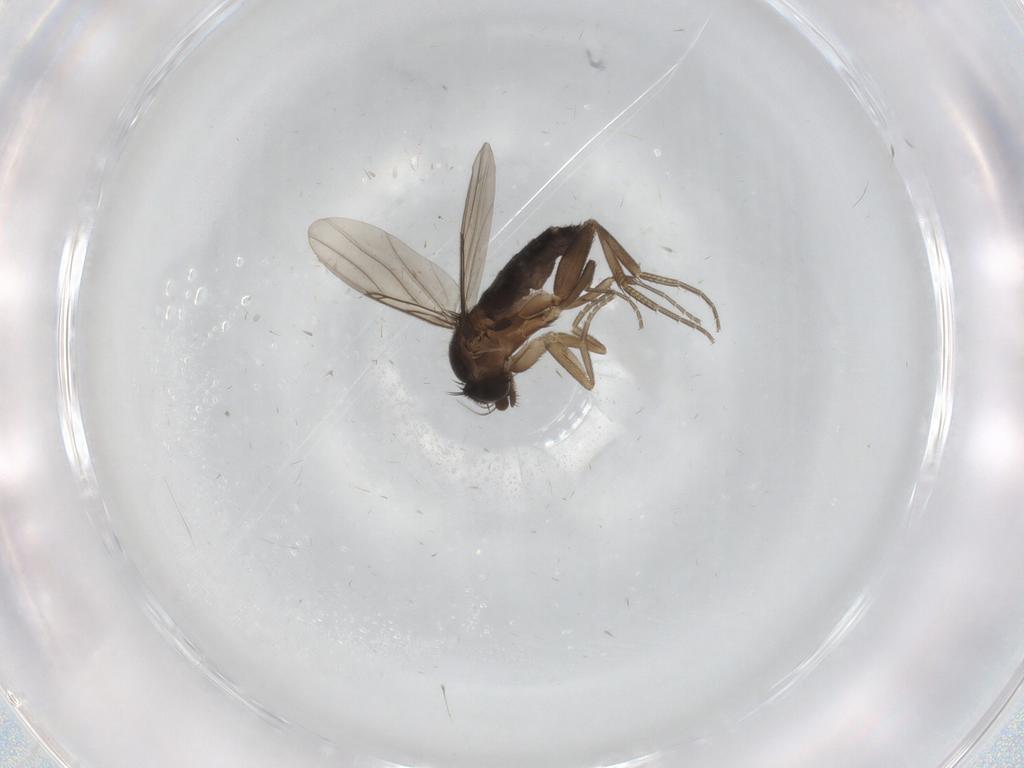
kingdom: Animalia
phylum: Arthropoda
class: Insecta
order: Diptera
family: Phoridae
